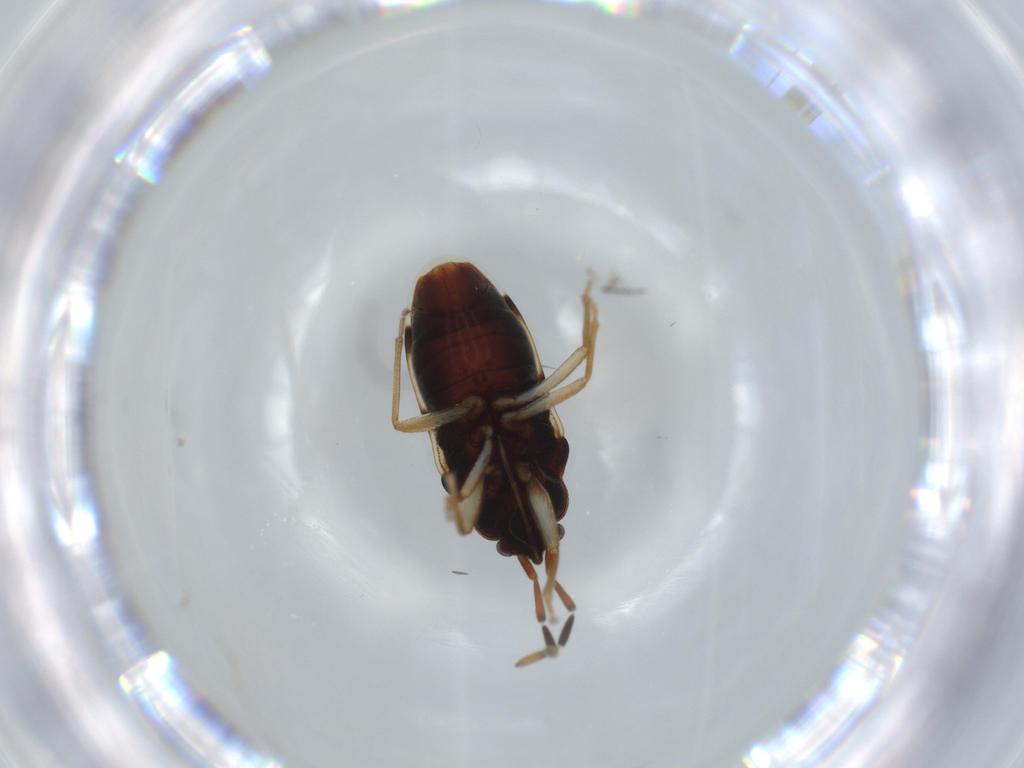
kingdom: Animalia
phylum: Arthropoda
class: Insecta
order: Hemiptera
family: Rhyparochromidae
